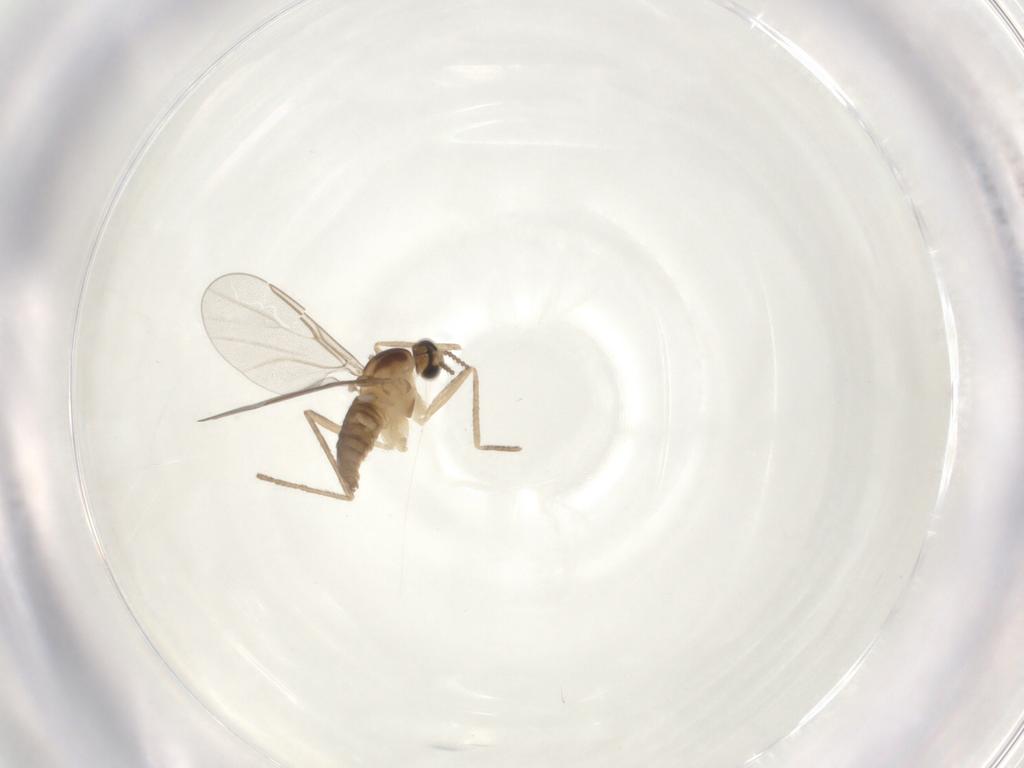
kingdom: Animalia
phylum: Arthropoda
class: Insecta
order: Diptera
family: Cecidomyiidae
